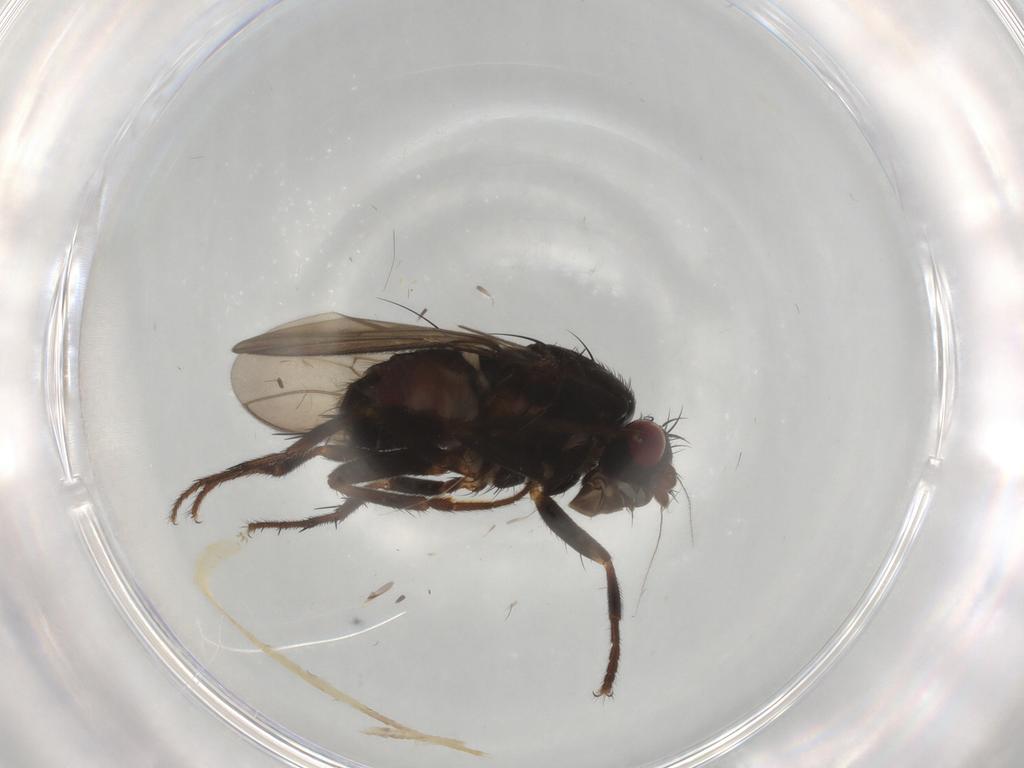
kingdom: Animalia
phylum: Arthropoda
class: Insecta
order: Diptera
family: Sphaeroceridae
